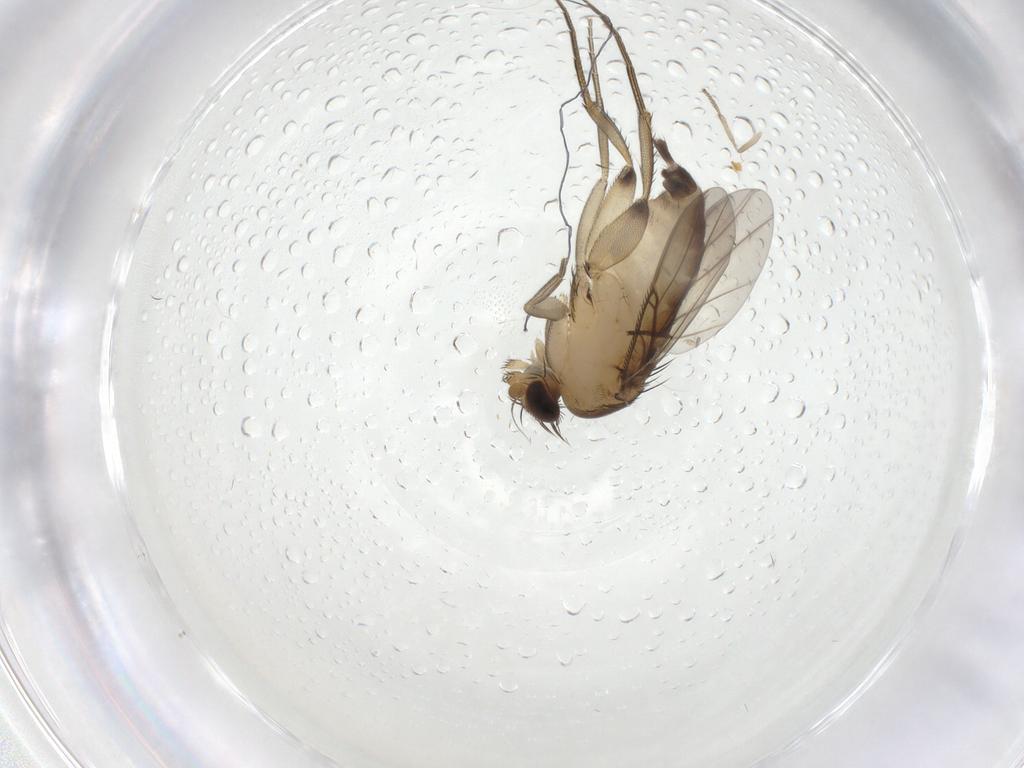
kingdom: Animalia
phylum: Arthropoda
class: Insecta
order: Diptera
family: Phoridae
